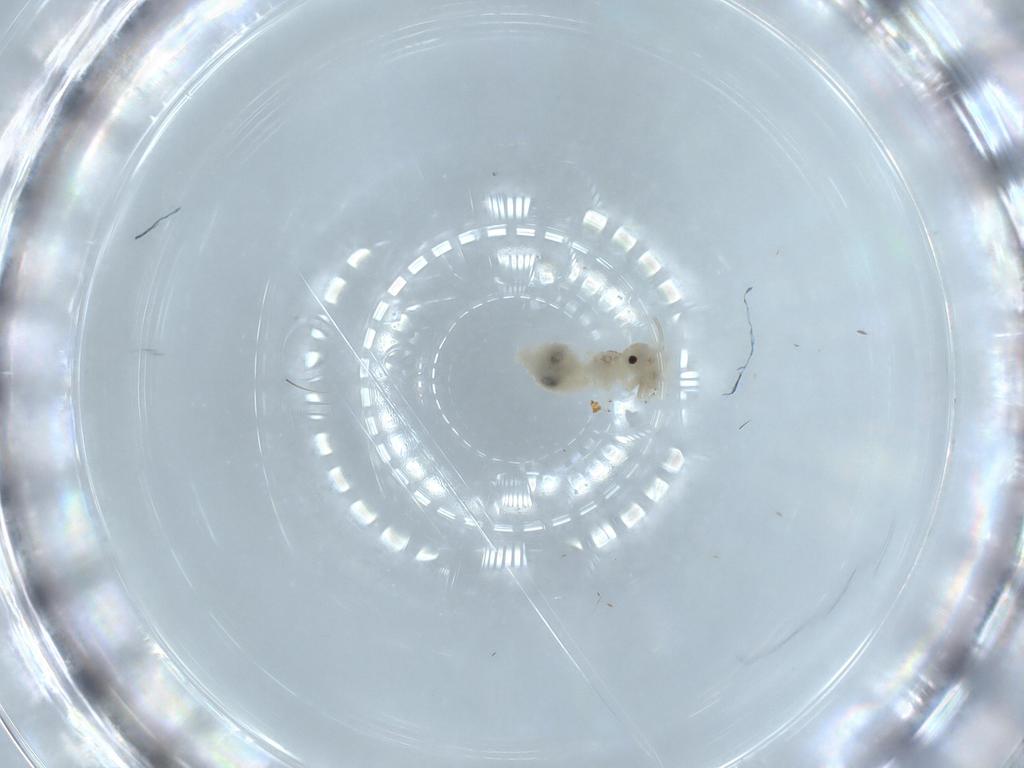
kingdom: Animalia
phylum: Arthropoda
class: Insecta
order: Psocodea
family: Caeciliusidae
